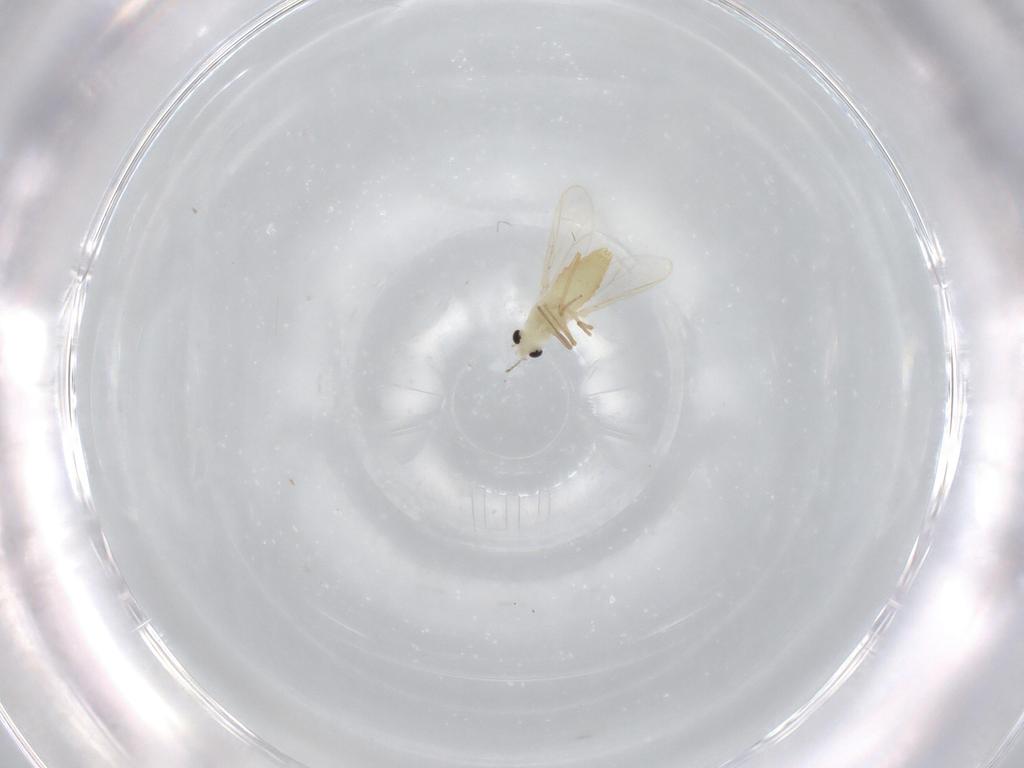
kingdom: Animalia
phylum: Arthropoda
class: Insecta
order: Diptera
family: Chironomidae
